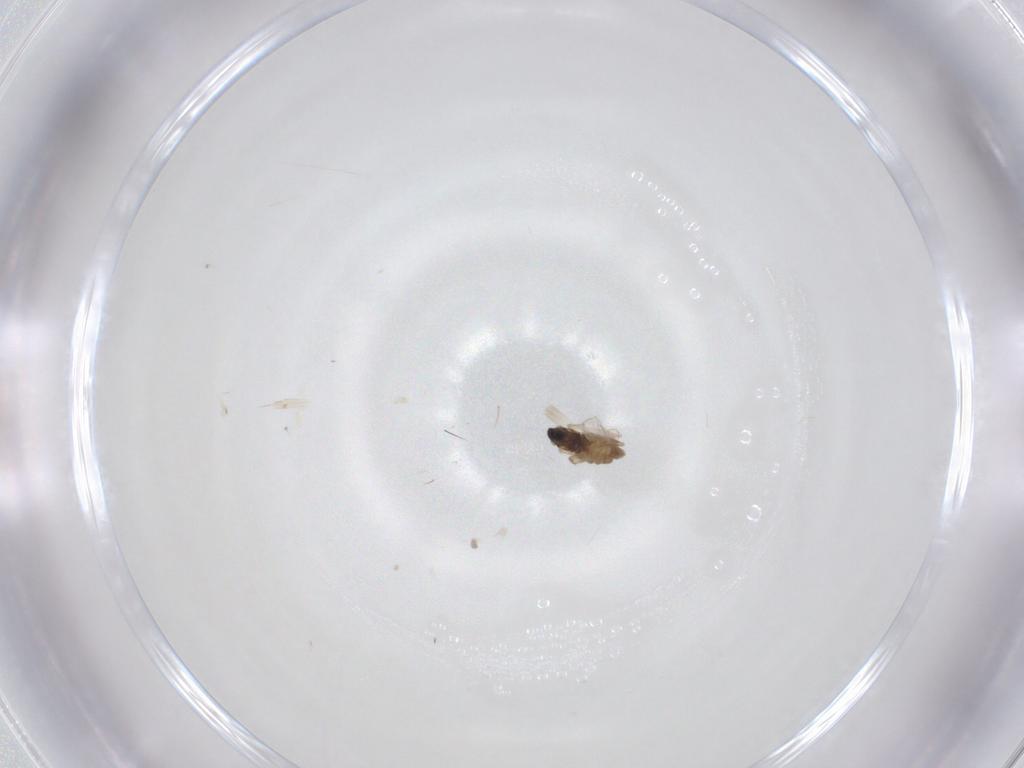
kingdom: Animalia
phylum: Arthropoda
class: Insecta
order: Diptera
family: Cecidomyiidae
